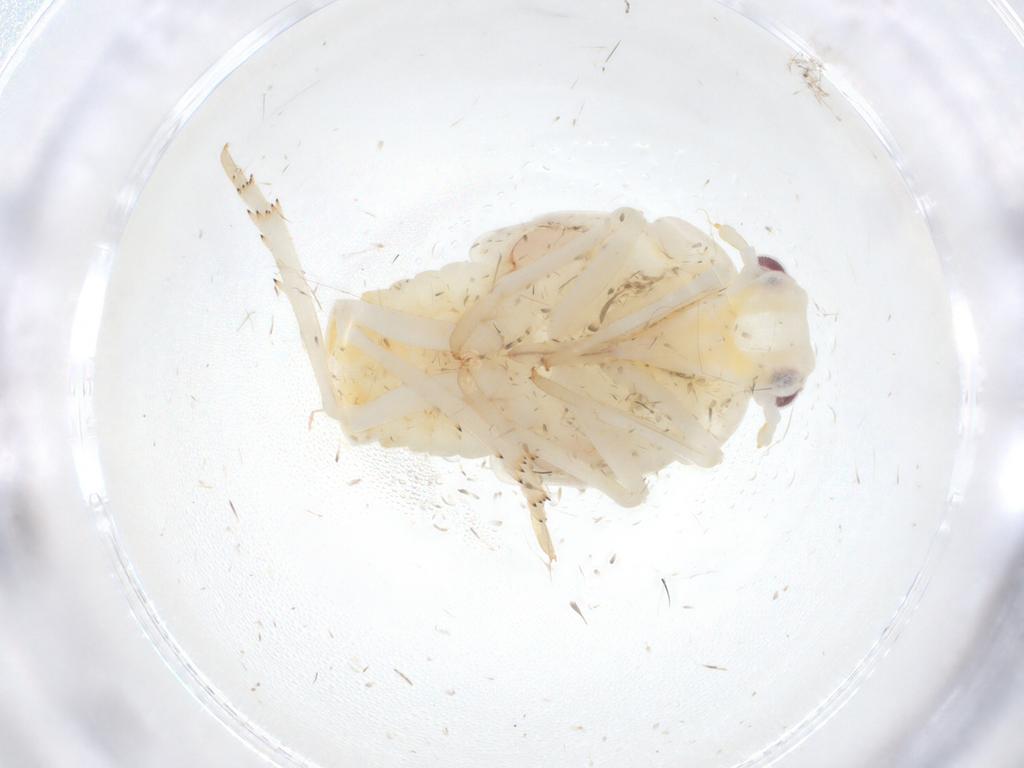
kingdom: Animalia
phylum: Arthropoda
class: Insecta
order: Hemiptera
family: Flatidae
